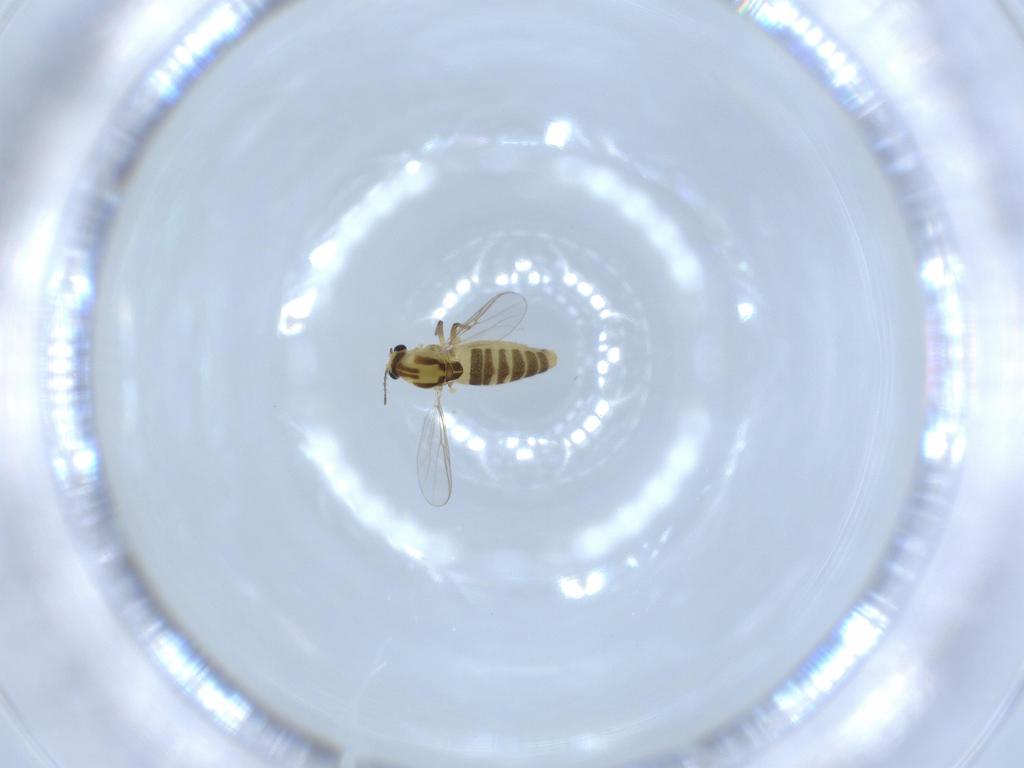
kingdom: Animalia
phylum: Arthropoda
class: Insecta
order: Diptera
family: Chironomidae
